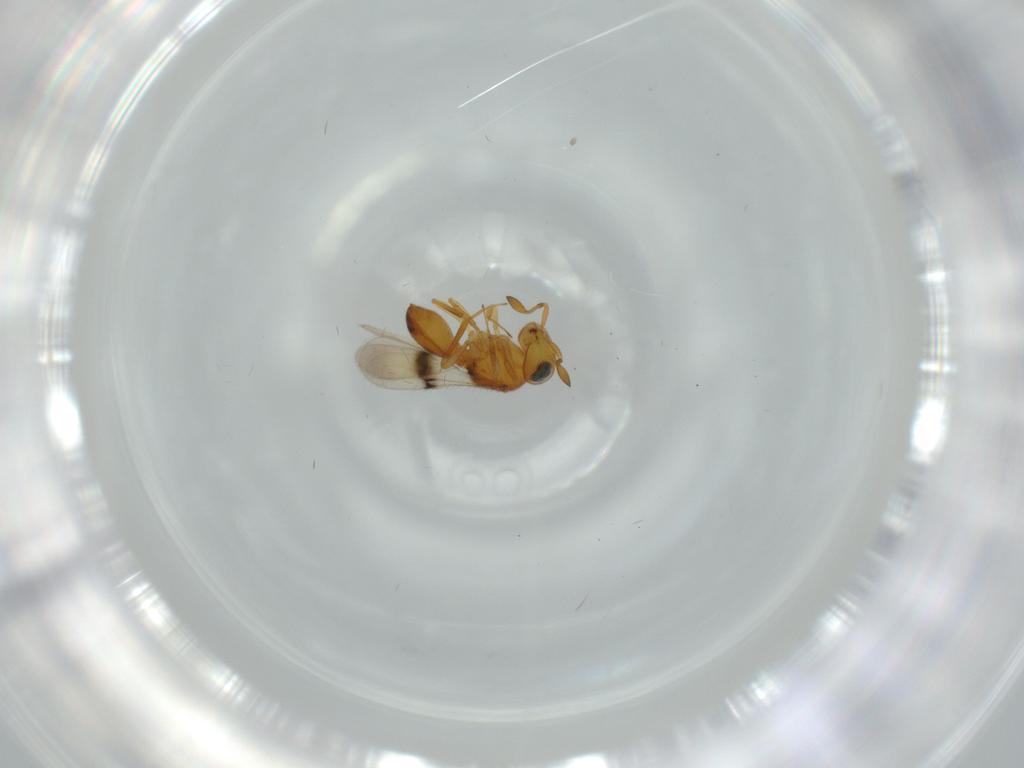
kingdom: Animalia
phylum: Arthropoda
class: Insecta
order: Hymenoptera
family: Scelionidae
